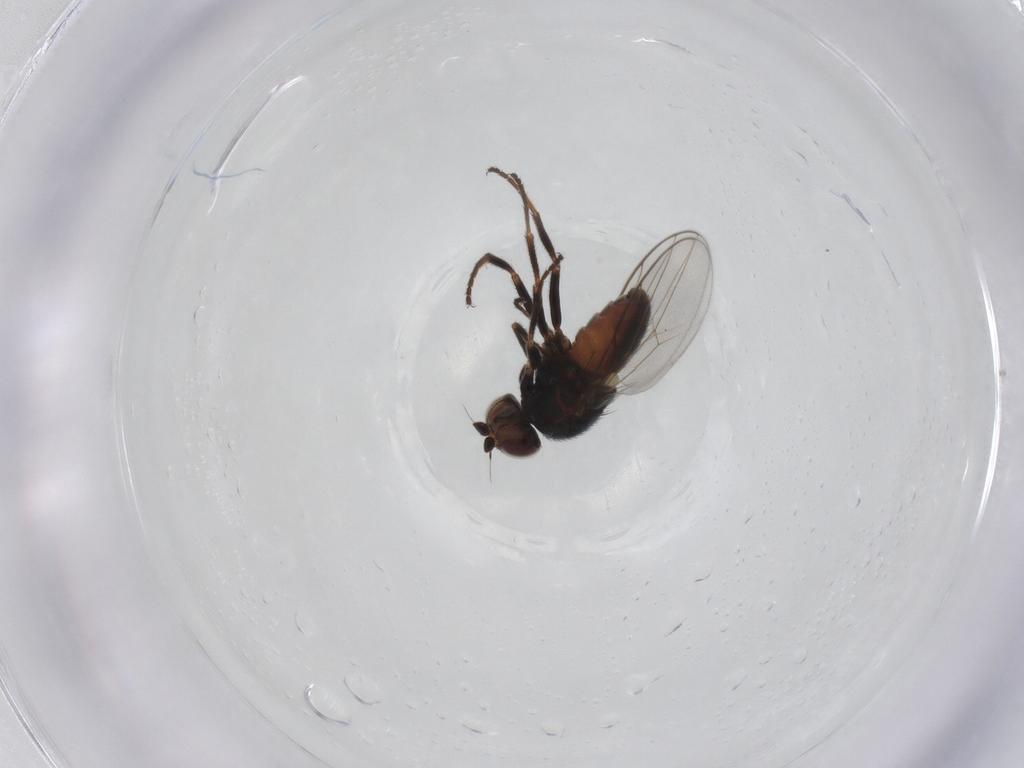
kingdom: Animalia
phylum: Arthropoda
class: Insecta
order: Diptera
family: Chloropidae
